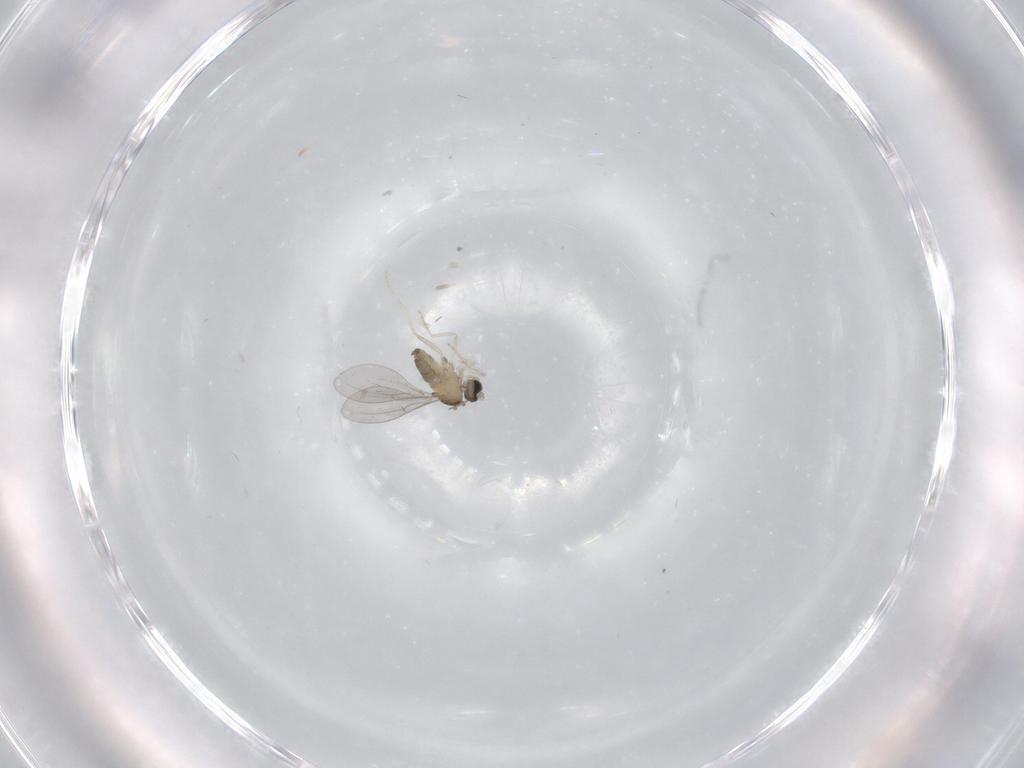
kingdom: Animalia
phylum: Arthropoda
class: Insecta
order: Diptera
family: Cecidomyiidae
